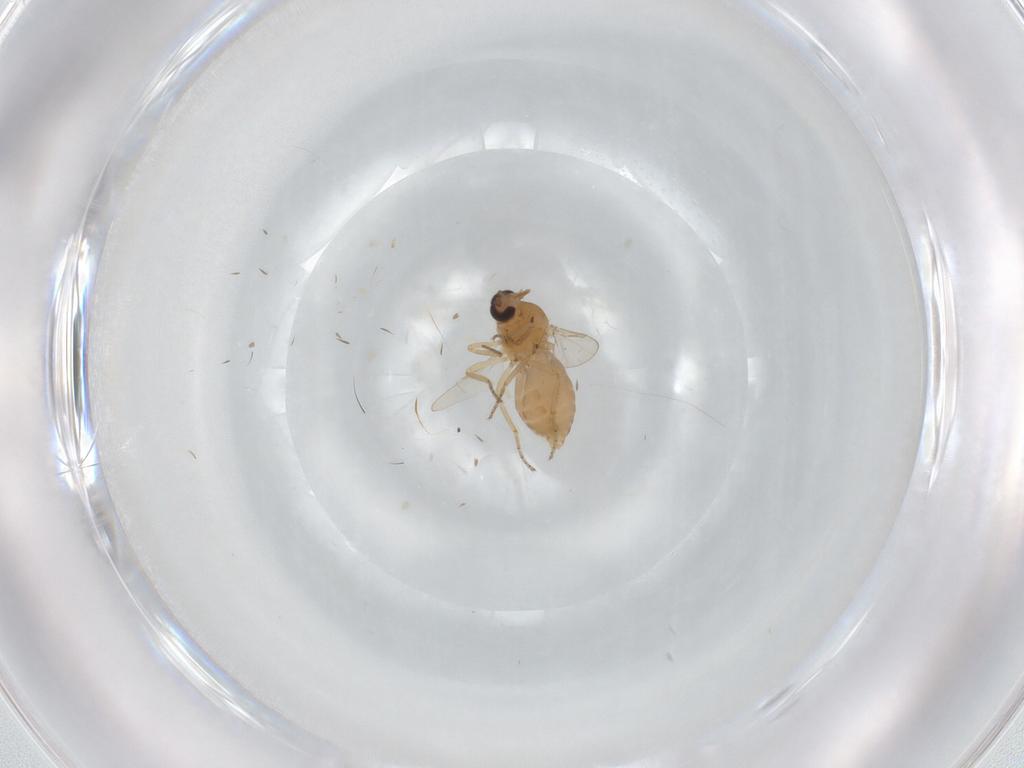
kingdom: Animalia
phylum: Arthropoda
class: Insecta
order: Diptera
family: Ceratopogonidae
